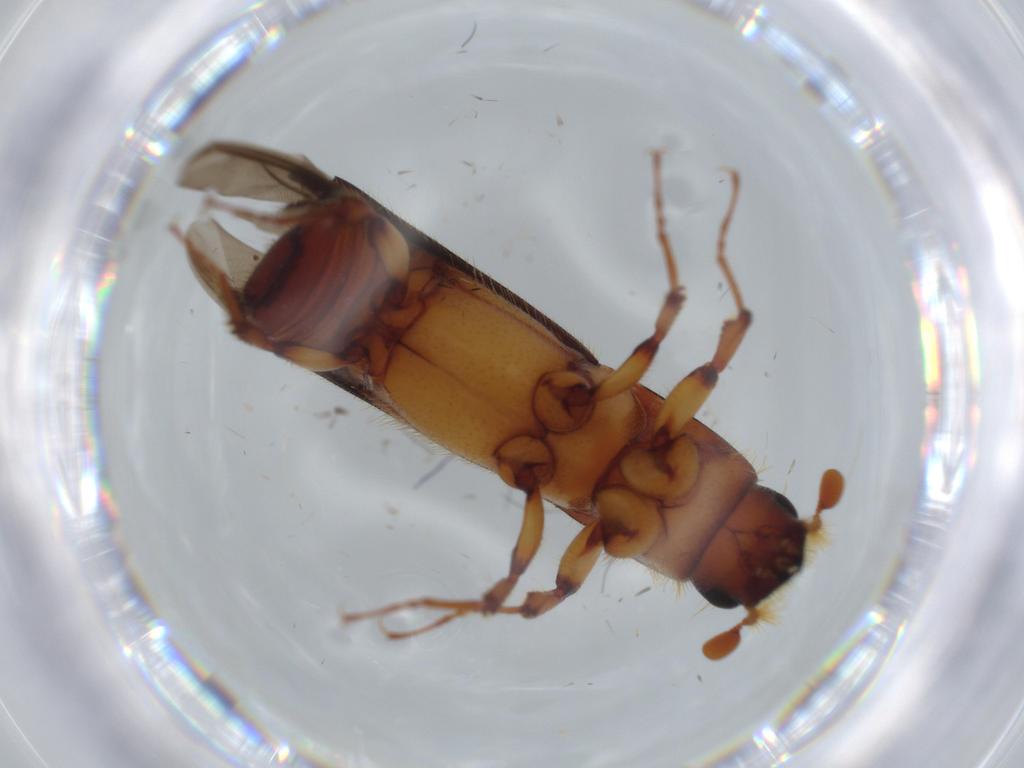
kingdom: Animalia
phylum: Arthropoda
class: Insecta
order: Coleoptera
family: Curculionidae
